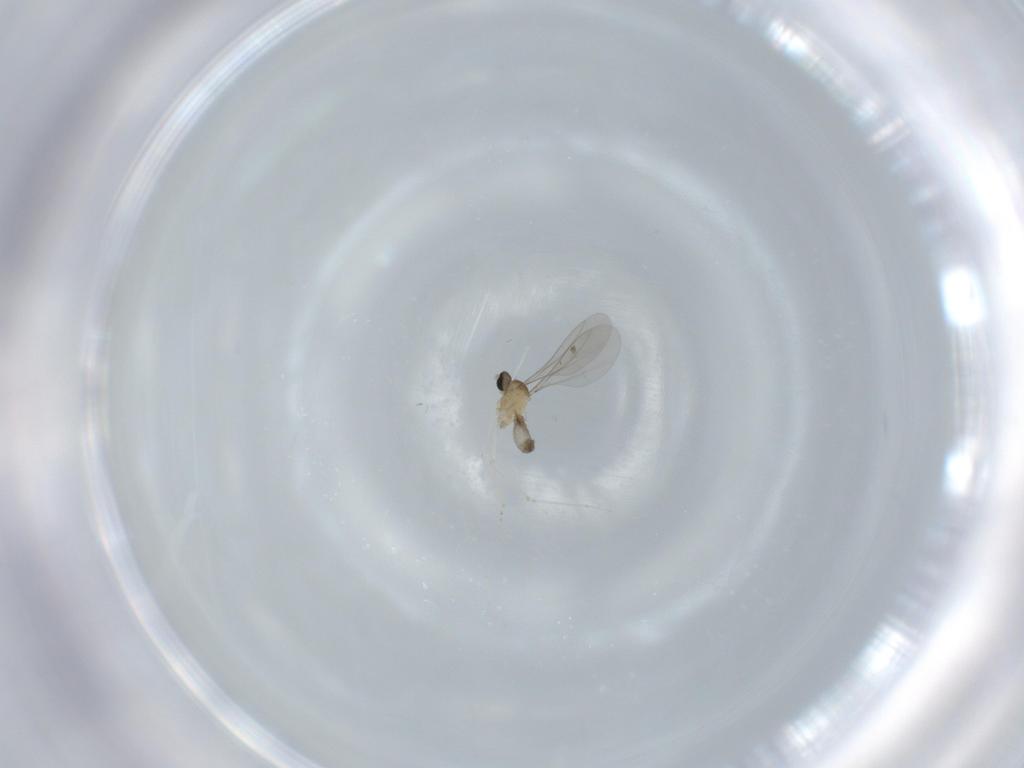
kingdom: Animalia
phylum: Arthropoda
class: Insecta
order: Diptera
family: Cecidomyiidae
